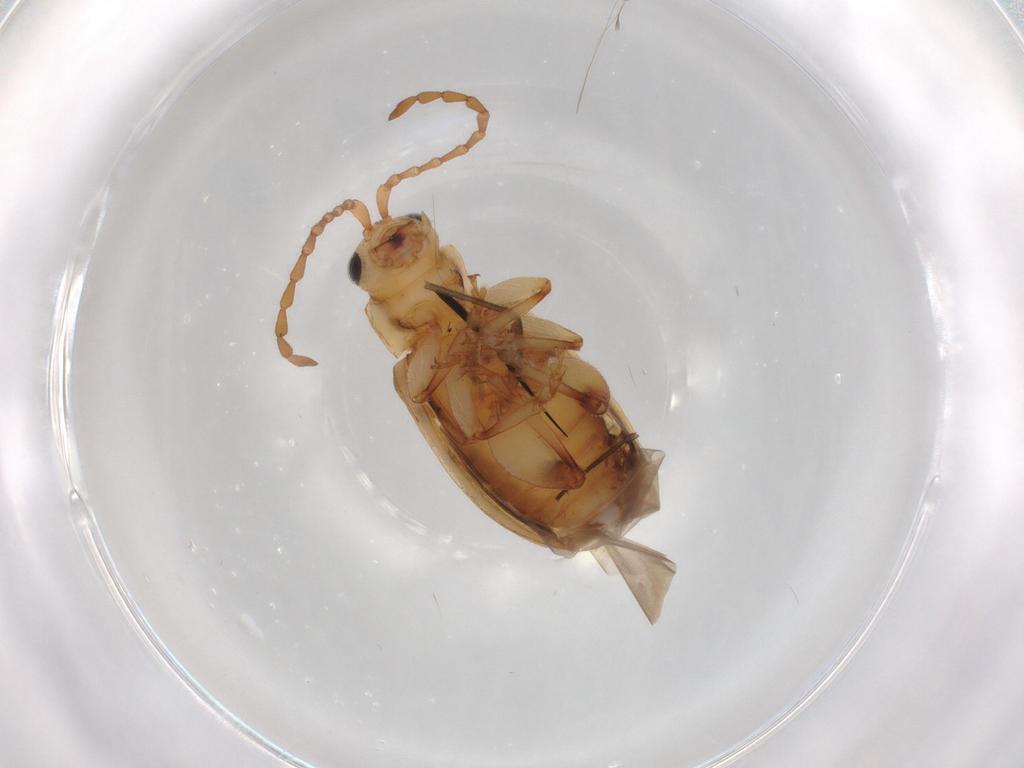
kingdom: Animalia
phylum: Arthropoda
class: Insecta
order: Coleoptera
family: Chrysomelidae
